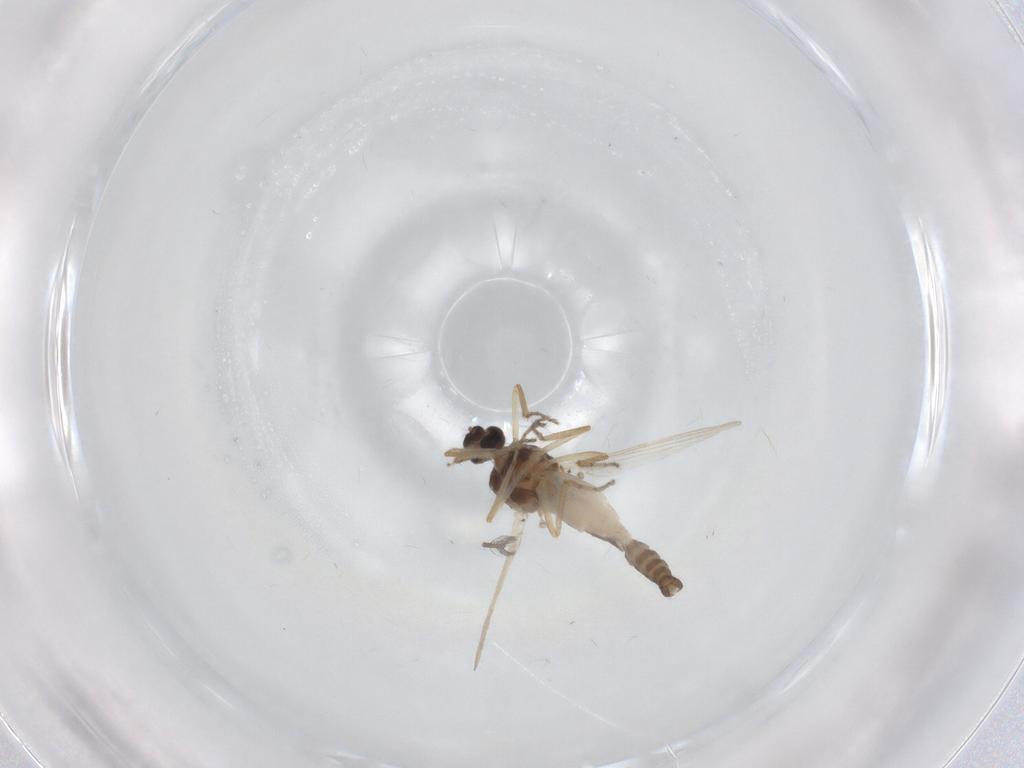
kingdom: Animalia
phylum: Arthropoda
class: Insecta
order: Diptera
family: Ceratopogonidae
